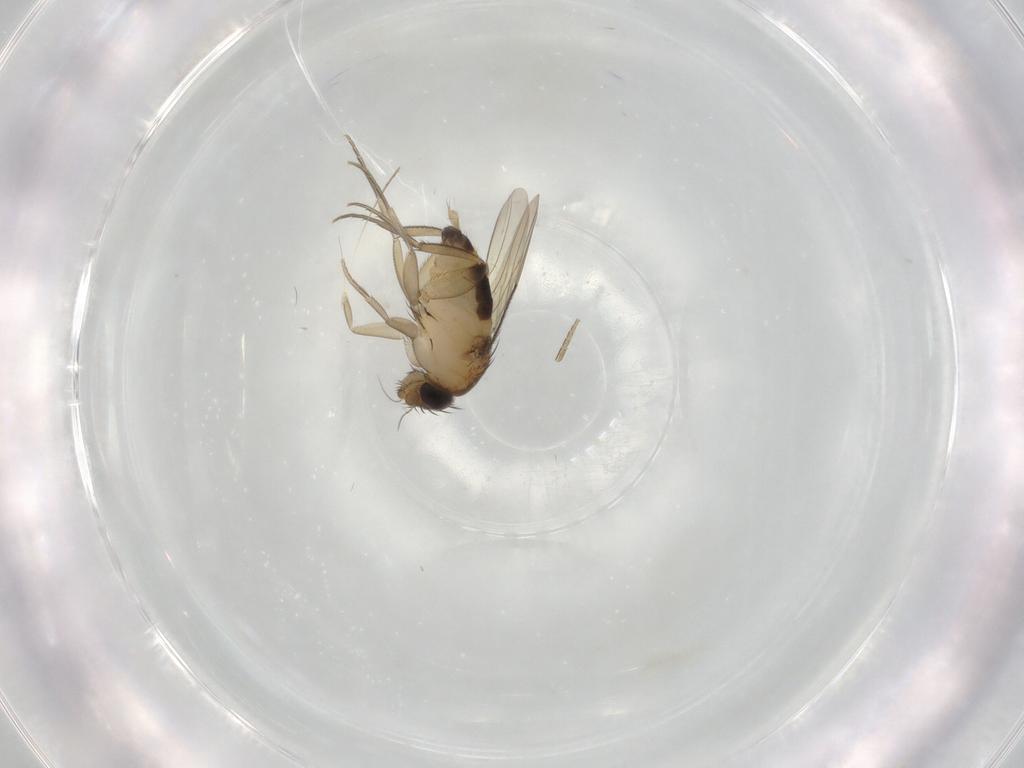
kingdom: Animalia
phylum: Arthropoda
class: Insecta
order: Diptera
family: Phoridae
